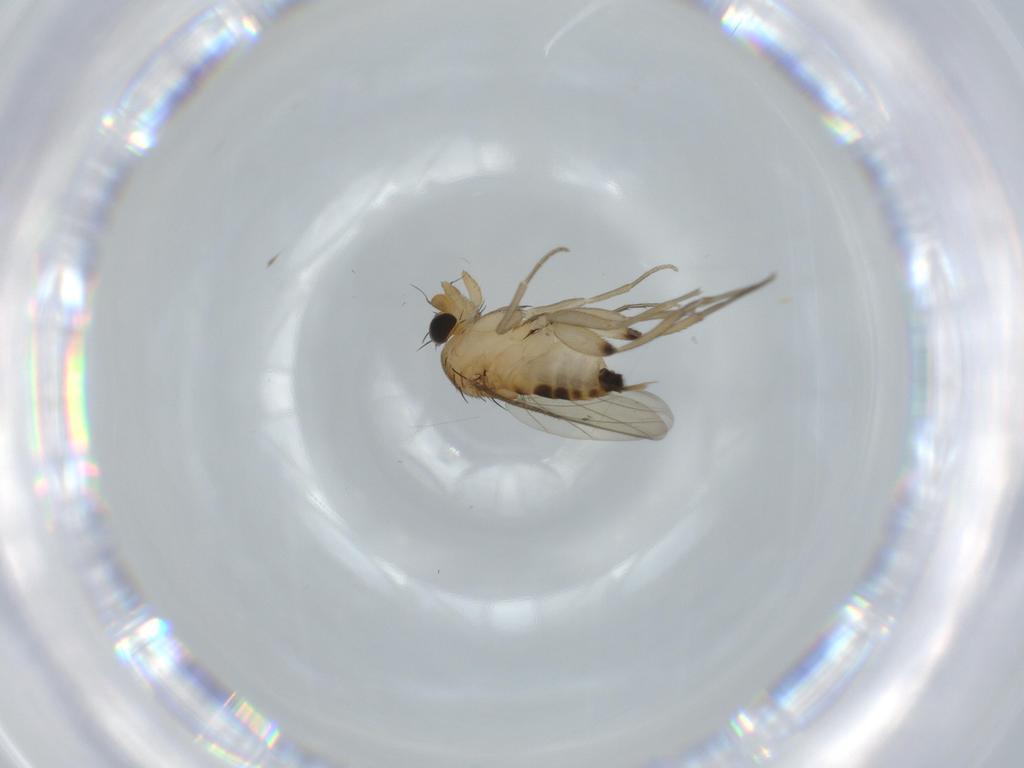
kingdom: Animalia
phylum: Arthropoda
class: Insecta
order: Diptera
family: Phoridae
